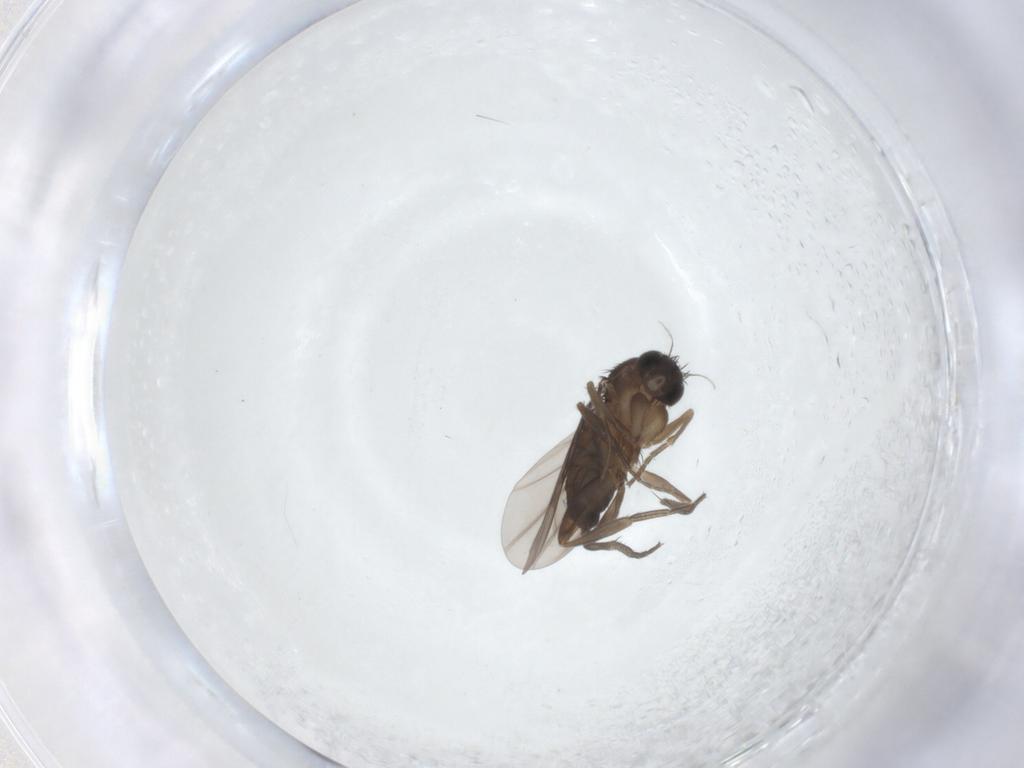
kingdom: Animalia
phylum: Arthropoda
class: Insecta
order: Diptera
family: Phoridae
